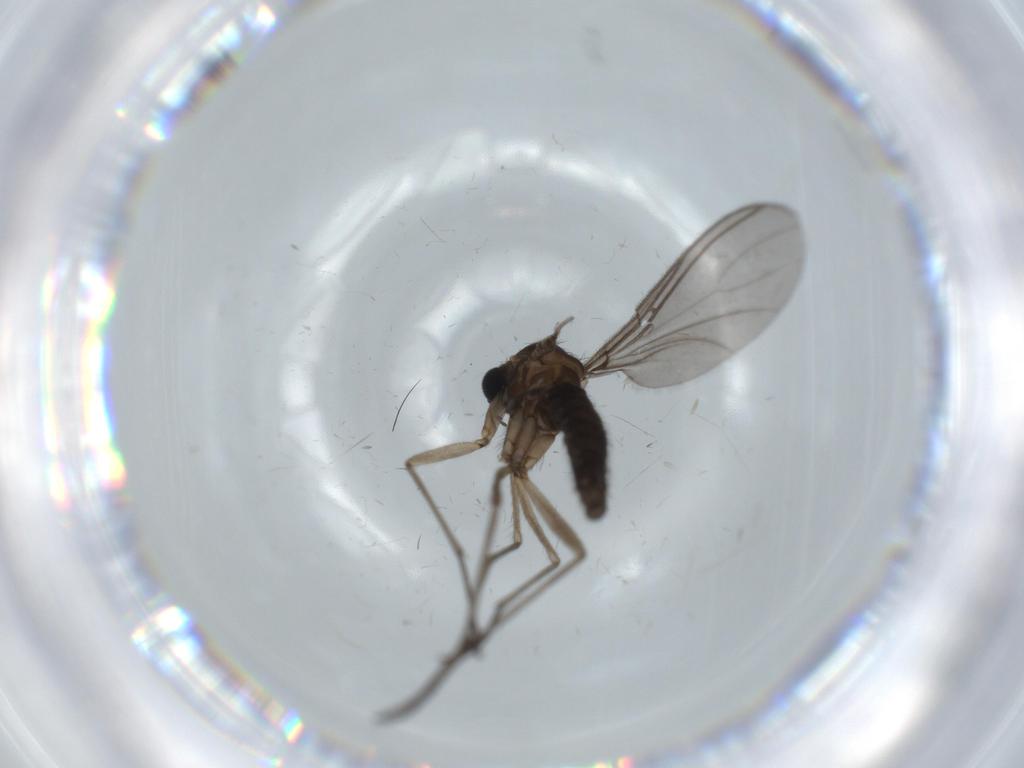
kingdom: Animalia
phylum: Arthropoda
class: Insecta
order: Diptera
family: Sciaridae
